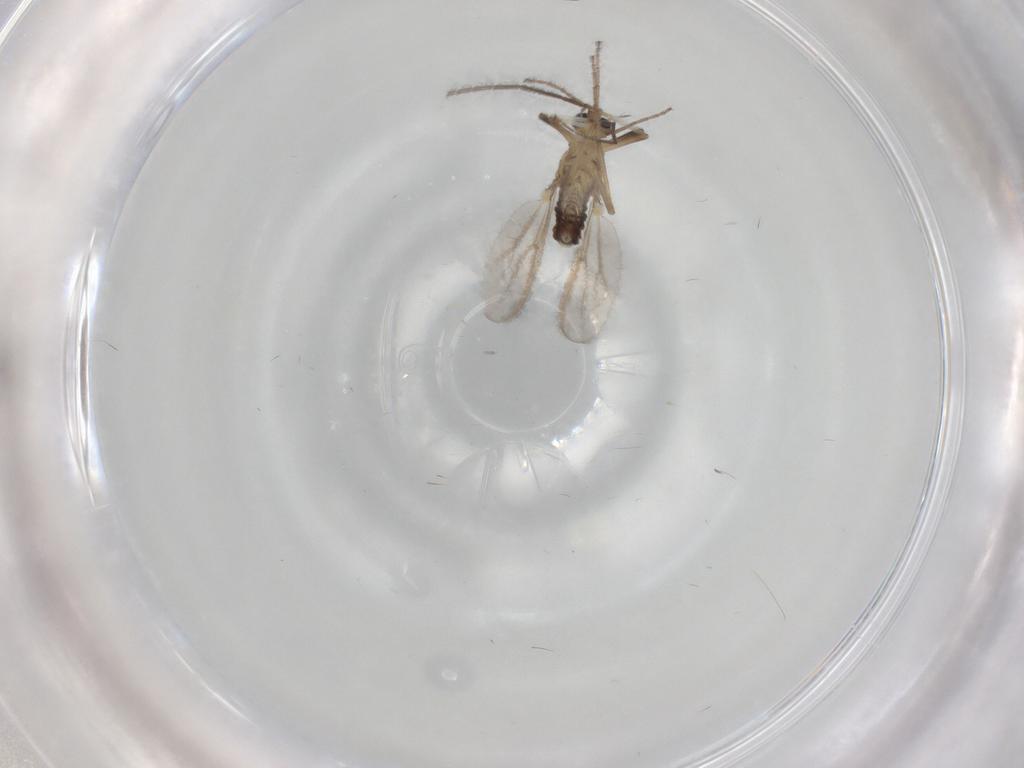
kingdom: Animalia
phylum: Arthropoda
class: Insecta
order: Diptera
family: Chironomidae
